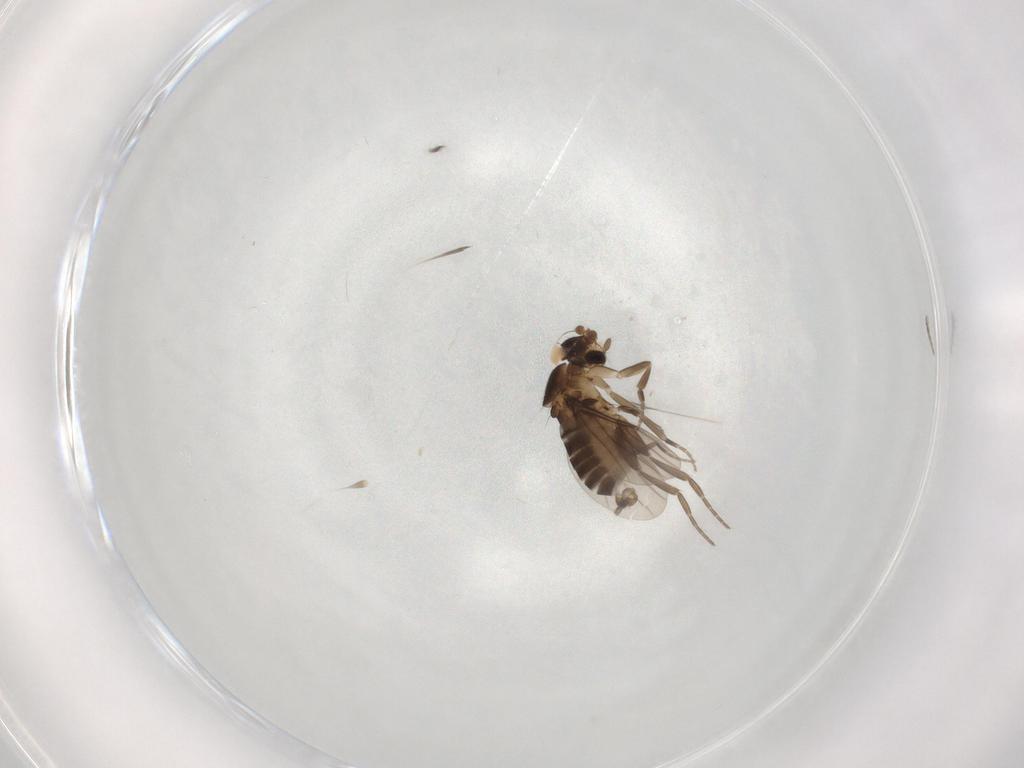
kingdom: Animalia
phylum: Arthropoda
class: Insecta
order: Diptera
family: Phoridae
